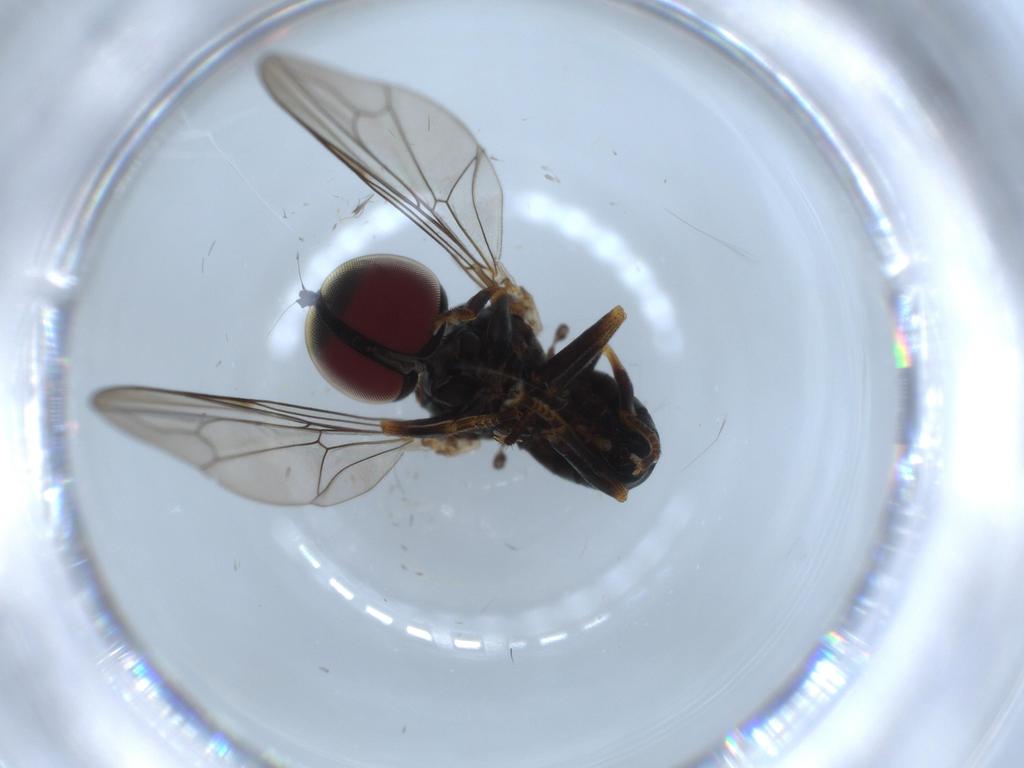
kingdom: Animalia
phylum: Arthropoda
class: Insecta
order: Diptera
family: Pipunculidae
